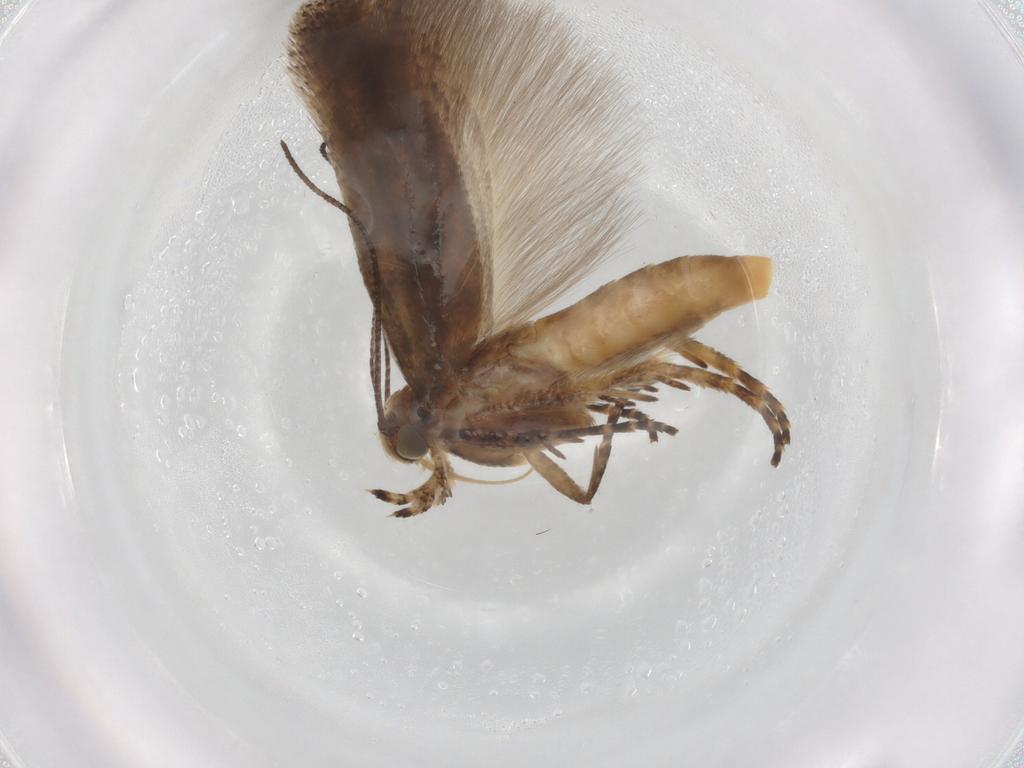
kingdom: Animalia
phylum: Arthropoda
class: Insecta
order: Lepidoptera
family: Gelechiidae
